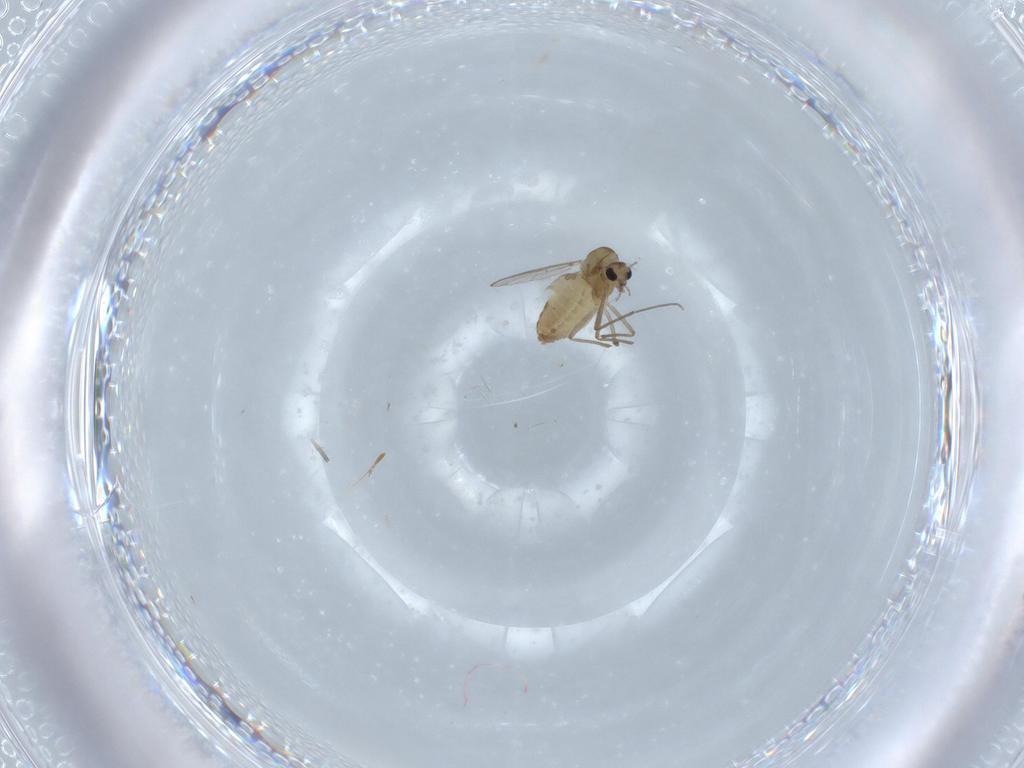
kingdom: Animalia
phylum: Arthropoda
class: Insecta
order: Diptera
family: Chironomidae
